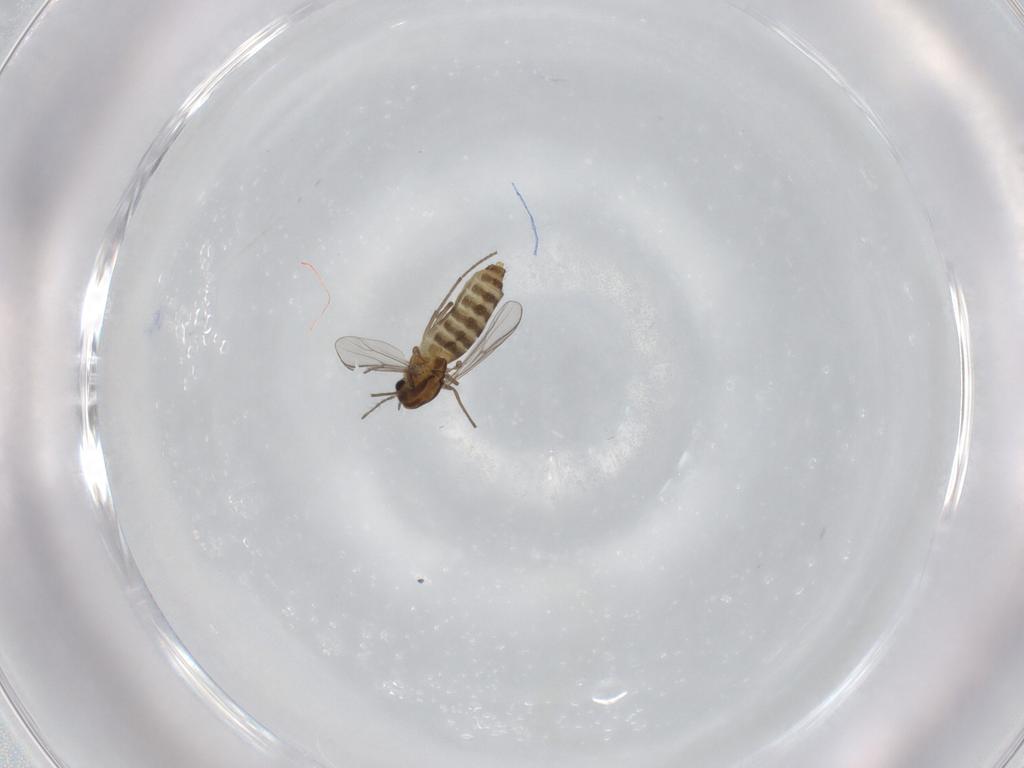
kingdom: Animalia
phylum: Arthropoda
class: Insecta
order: Diptera
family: Chironomidae
